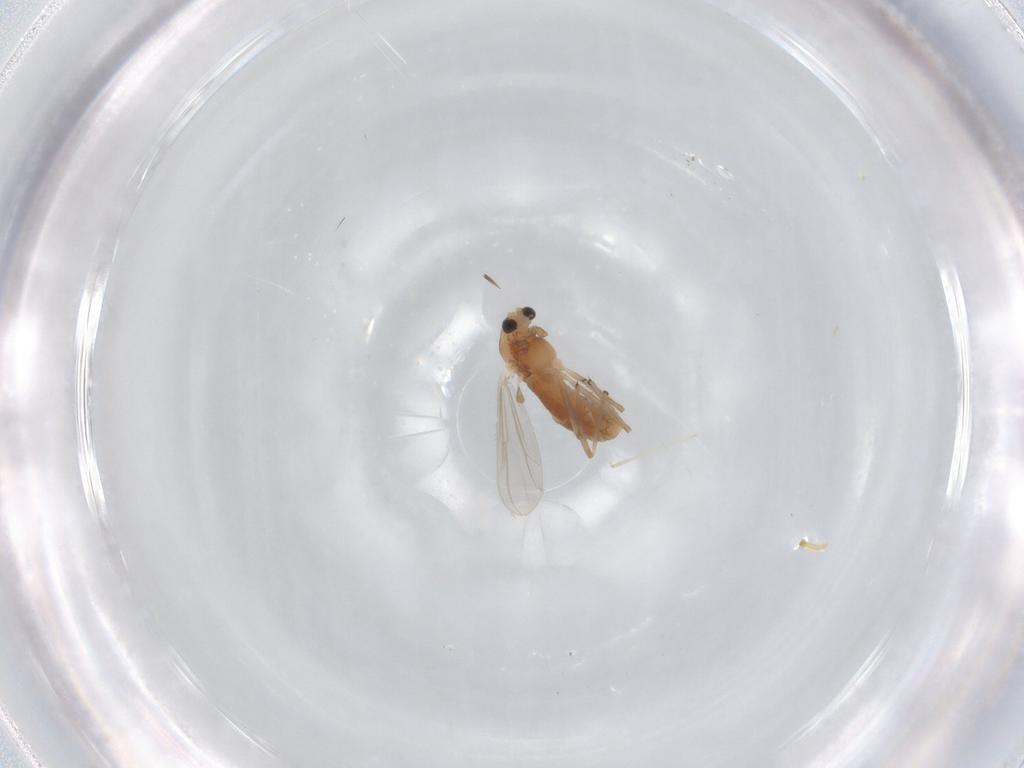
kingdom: Animalia
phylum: Arthropoda
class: Insecta
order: Diptera
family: Chironomidae
